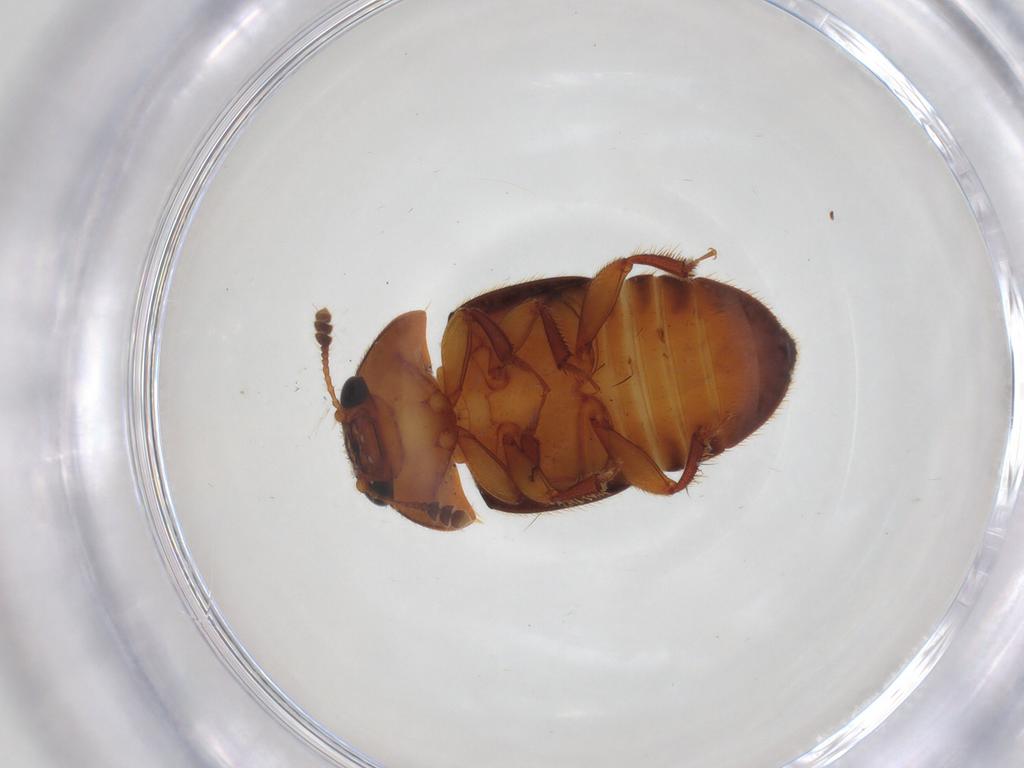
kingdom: Animalia
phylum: Arthropoda
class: Insecta
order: Coleoptera
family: Nitidulidae
